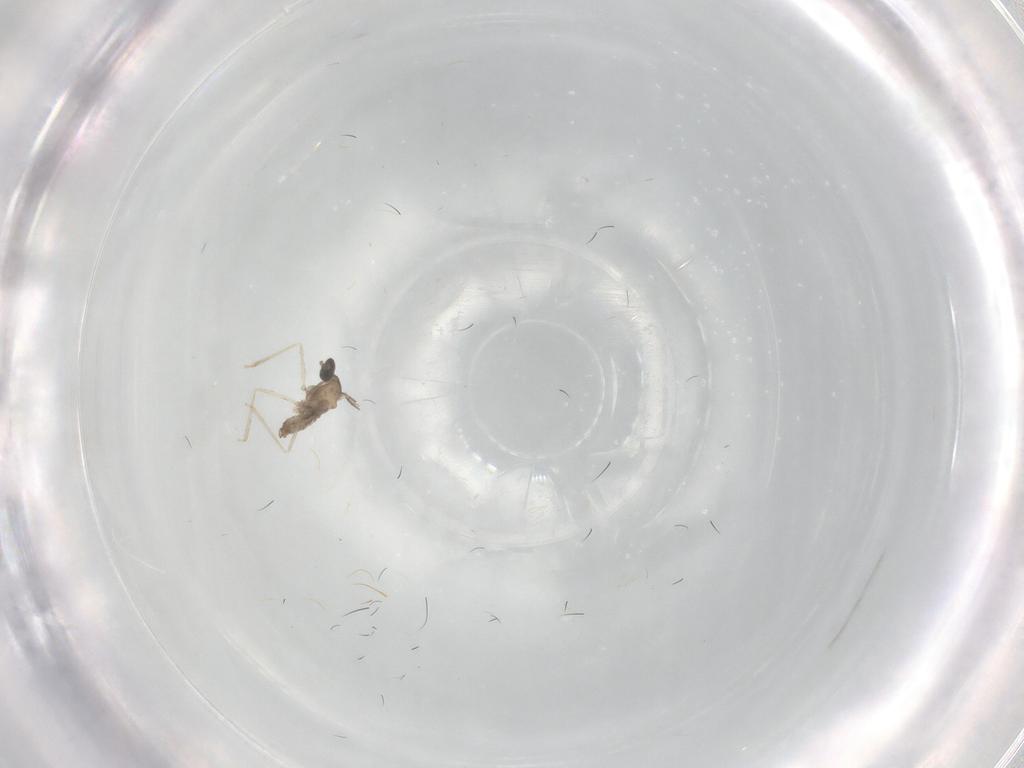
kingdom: Animalia
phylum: Arthropoda
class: Insecta
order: Diptera
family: Tabanidae
